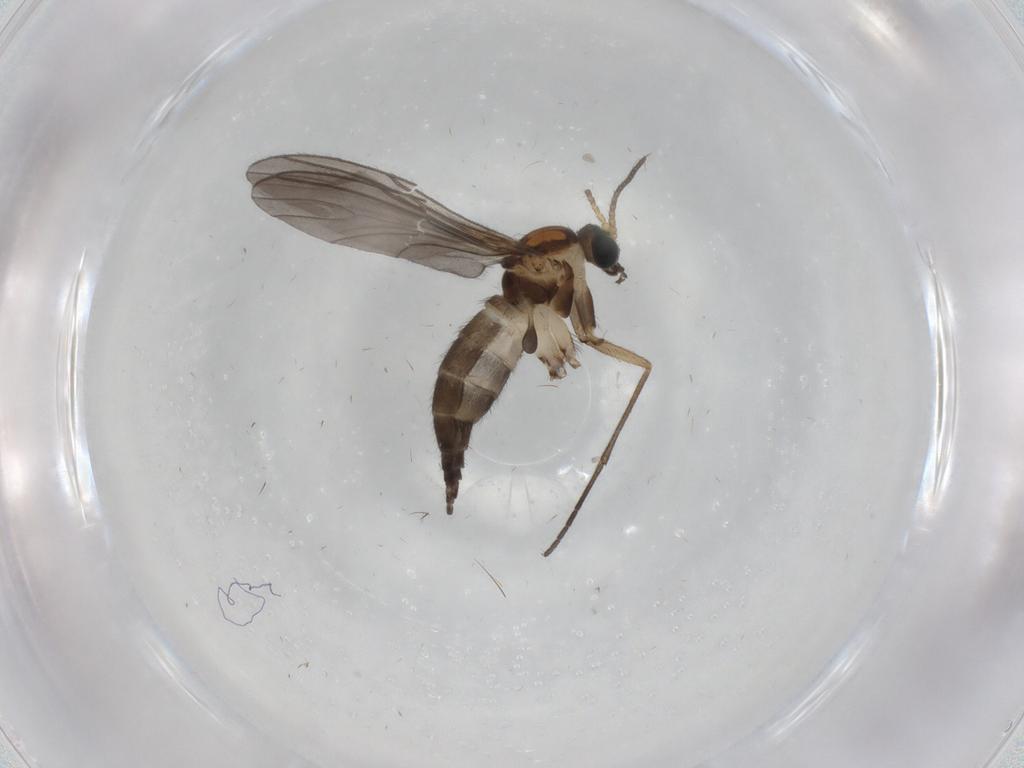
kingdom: Animalia
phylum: Arthropoda
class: Insecta
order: Diptera
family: Sciaridae
